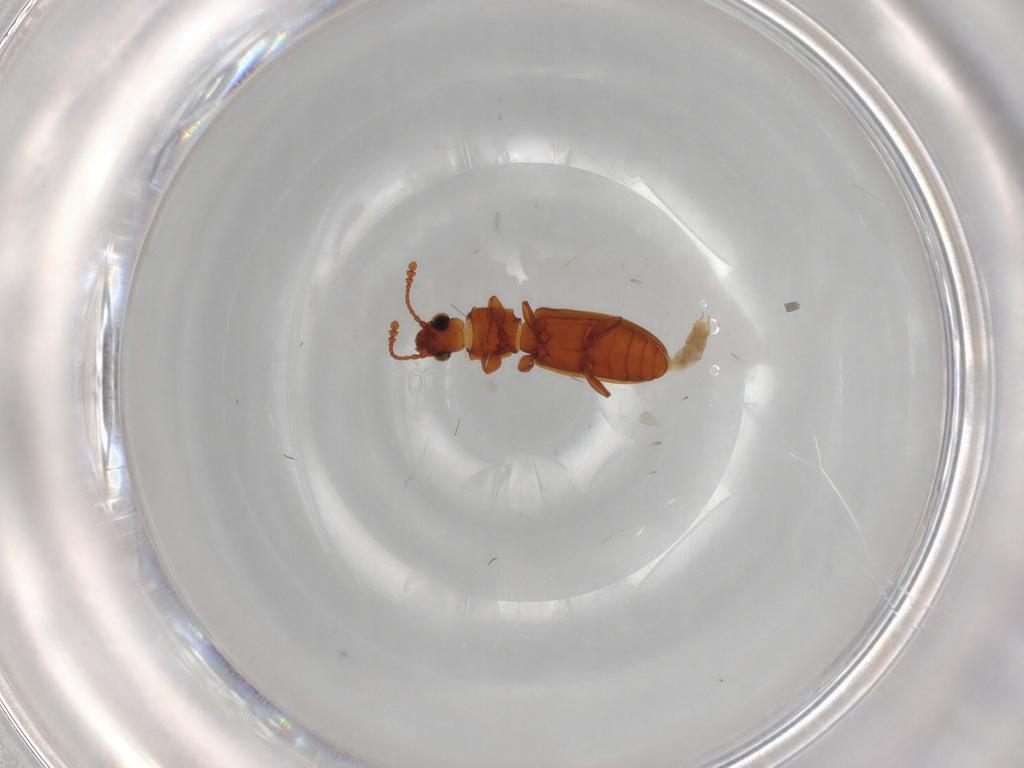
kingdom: Animalia
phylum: Arthropoda
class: Insecta
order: Coleoptera
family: Silvanidae
